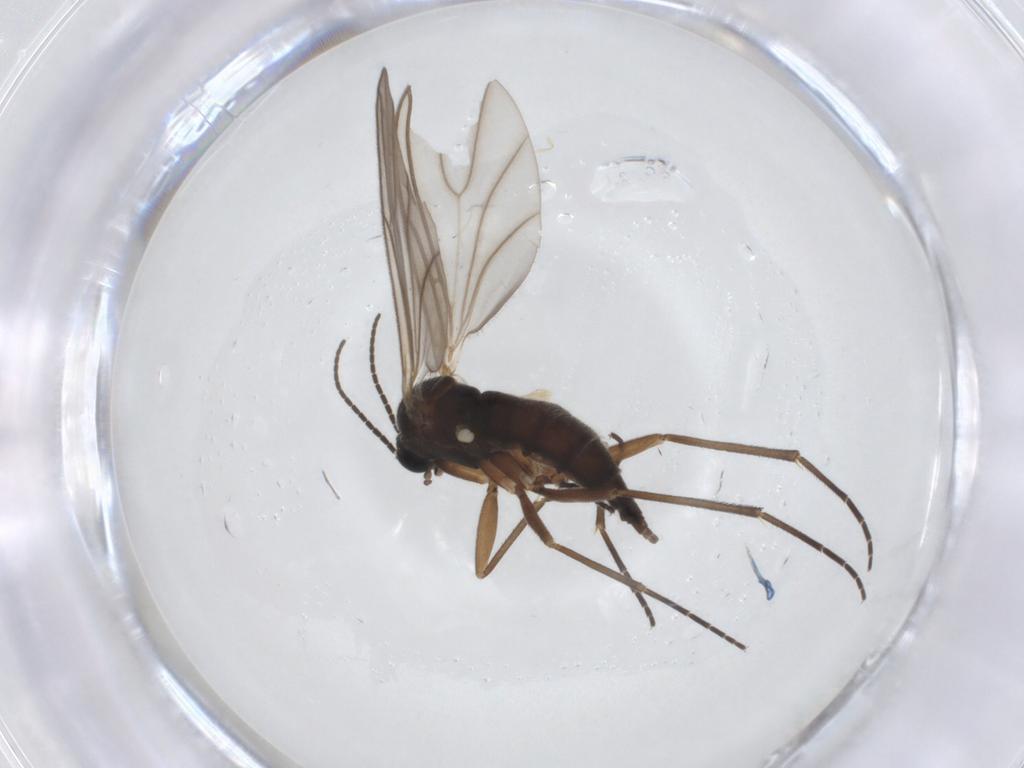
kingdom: Animalia
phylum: Arthropoda
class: Insecta
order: Diptera
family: Sciaridae
